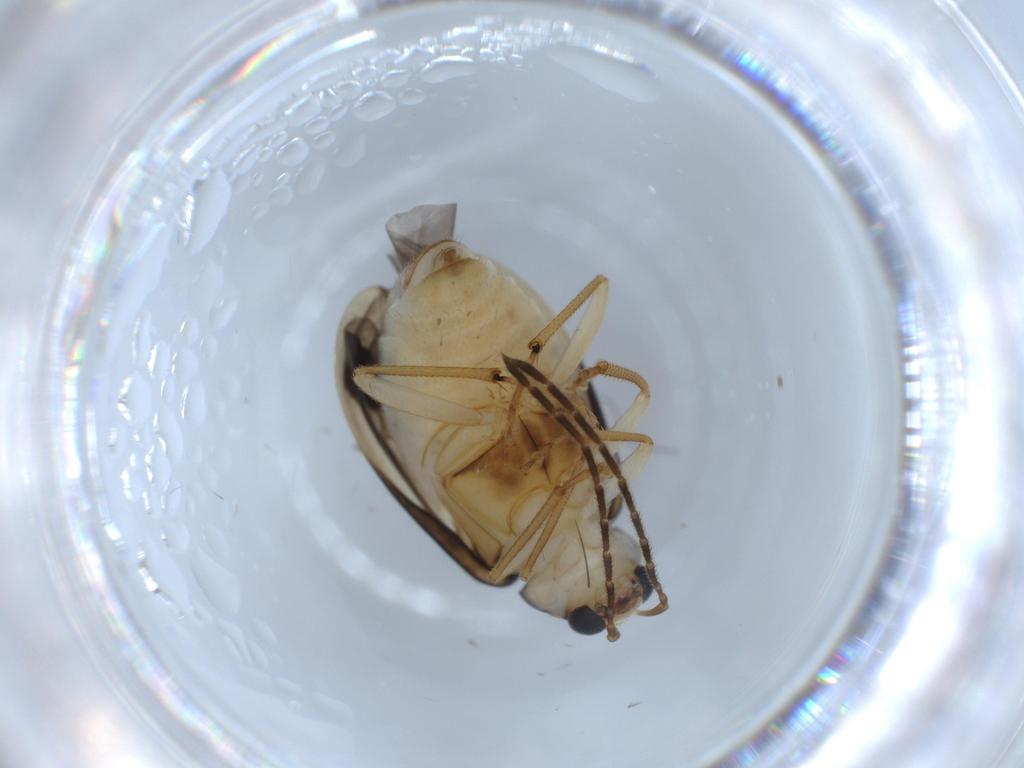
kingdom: Animalia
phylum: Arthropoda
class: Insecta
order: Coleoptera
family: Chrysomelidae
